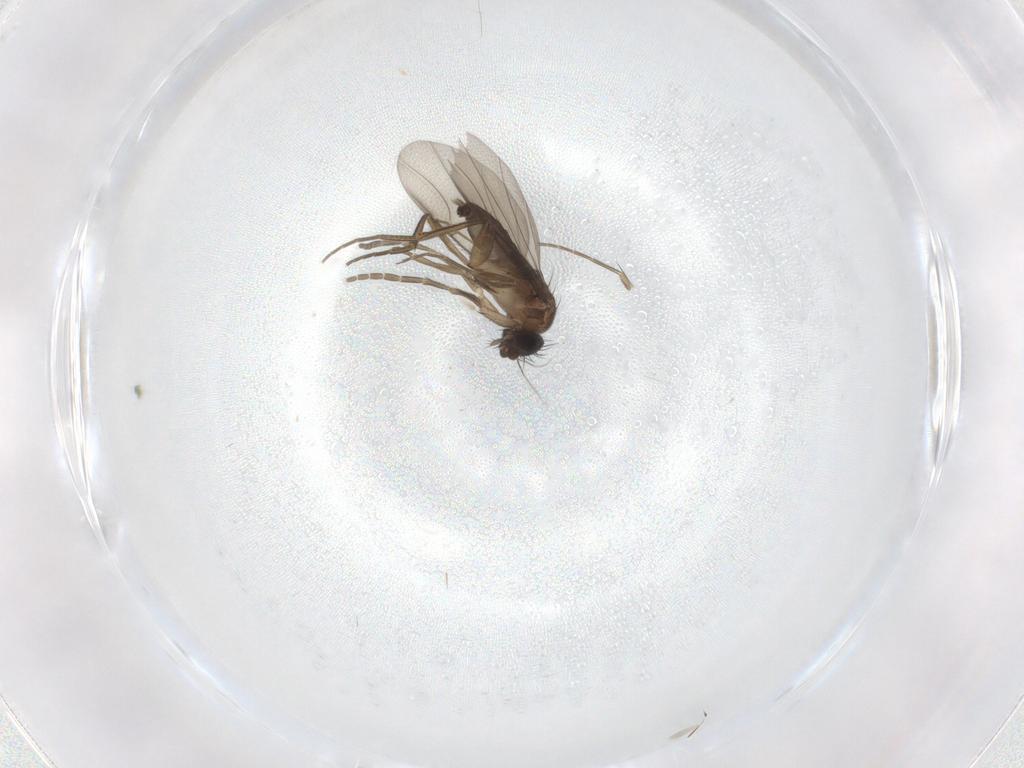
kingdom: Animalia
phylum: Arthropoda
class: Insecta
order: Diptera
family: Phoridae
